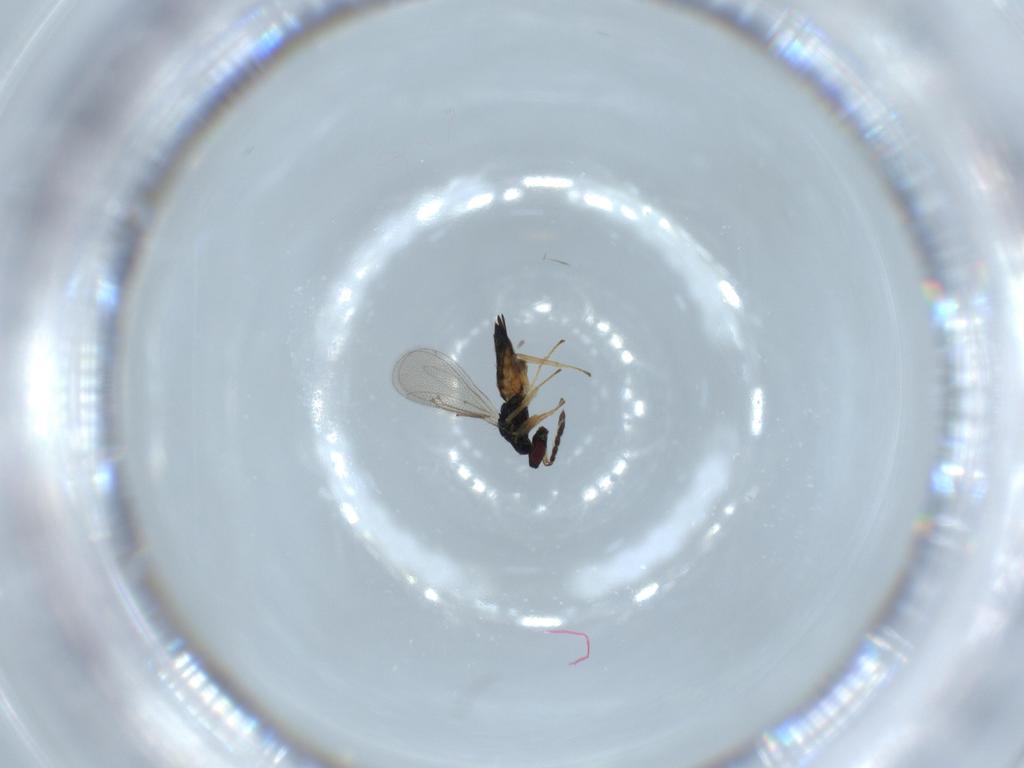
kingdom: Animalia
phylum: Arthropoda
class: Insecta
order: Hymenoptera
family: Eulophidae
